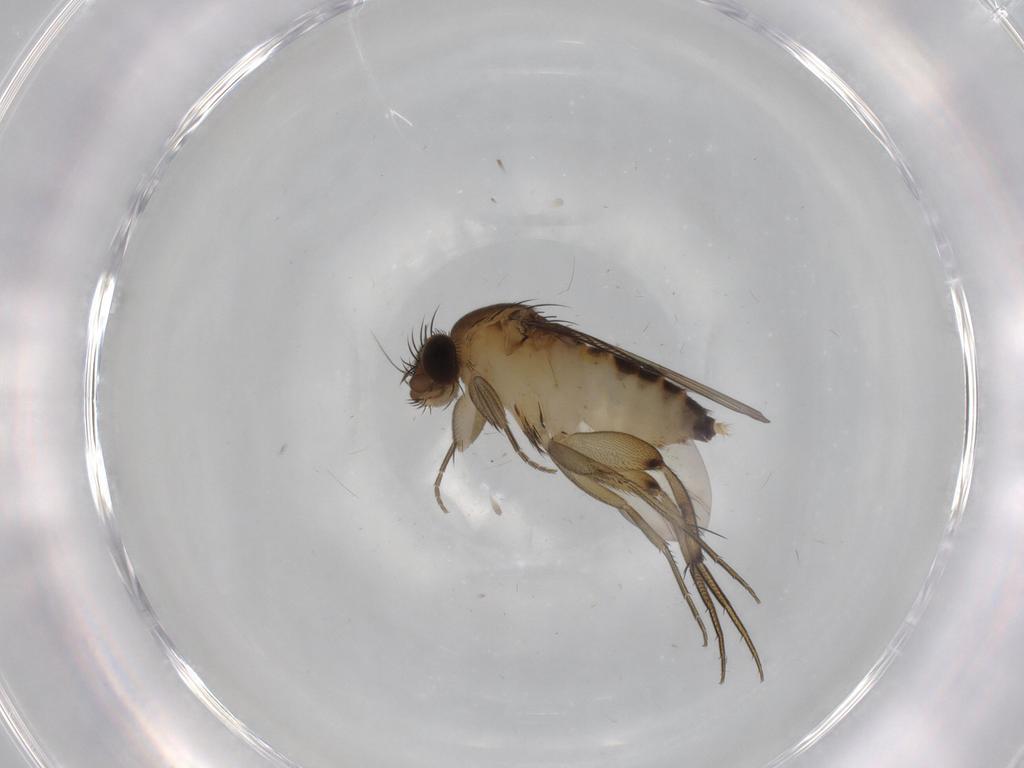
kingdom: Animalia
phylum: Arthropoda
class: Insecta
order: Diptera
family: Phoridae
